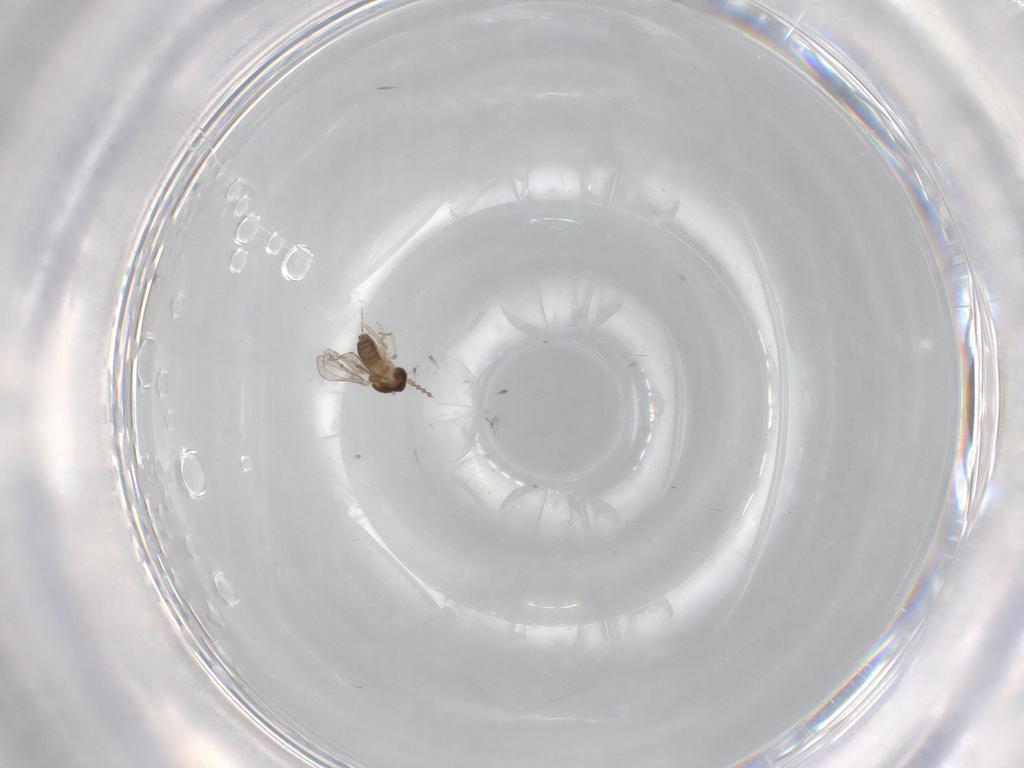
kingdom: Animalia
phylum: Arthropoda
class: Insecta
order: Diptera
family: Cecidomyiidae
